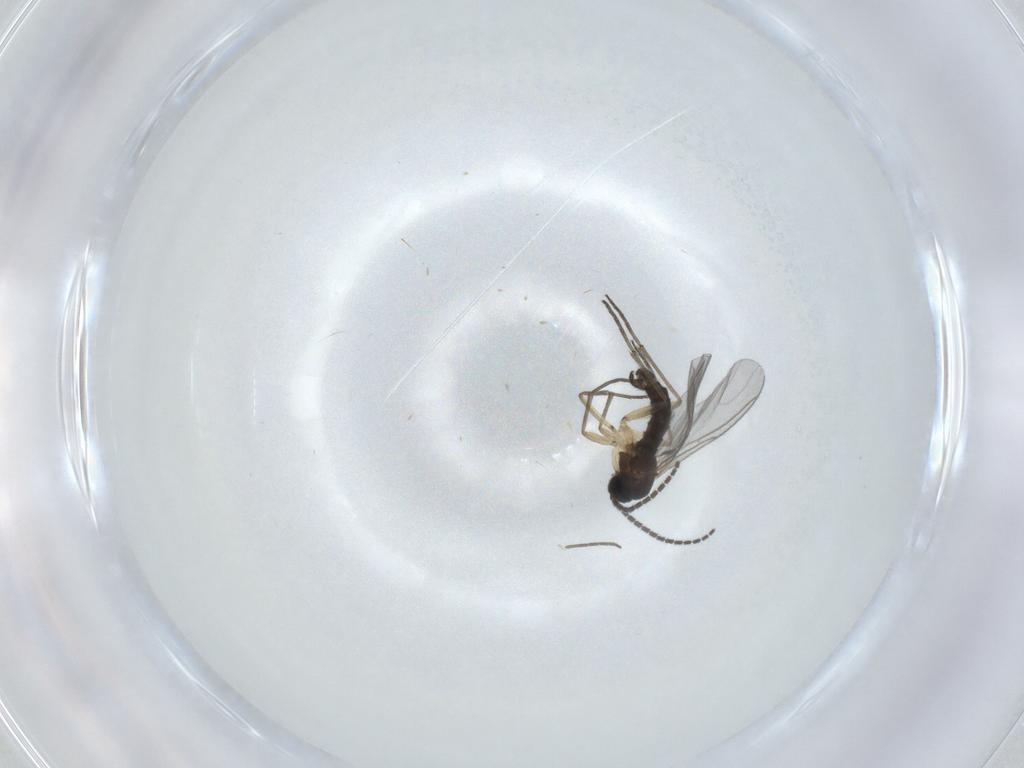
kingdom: Animalia
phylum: Arthropoda
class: Insecta
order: Diptera
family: Sciaridae
